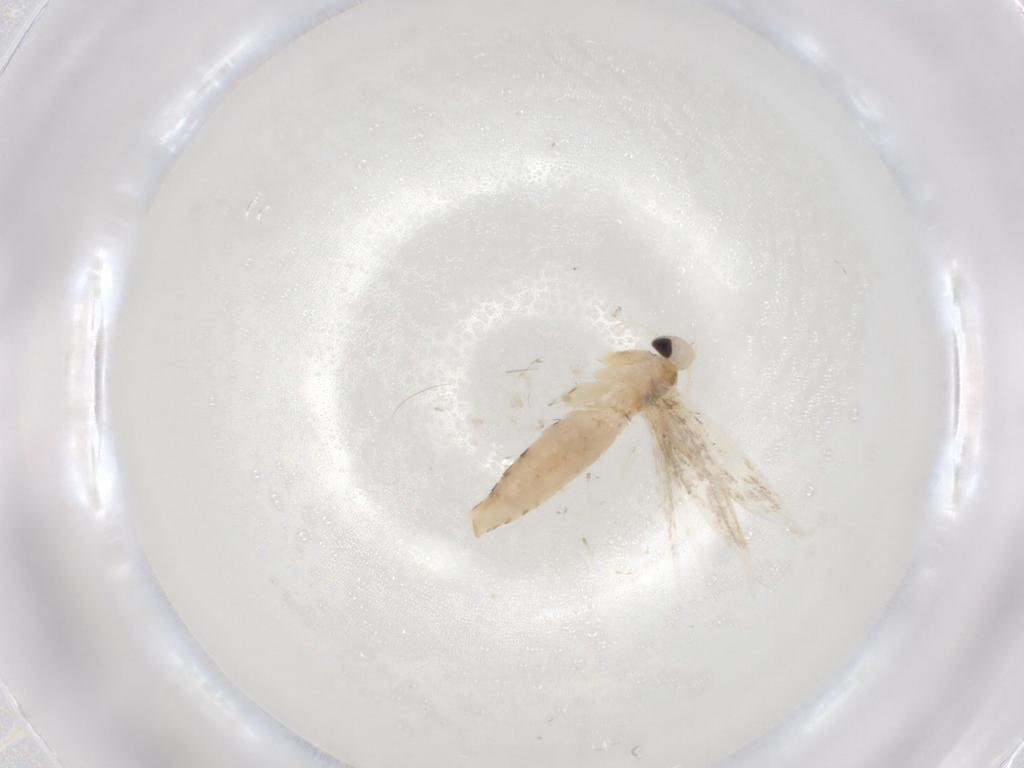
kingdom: Animalia
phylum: Arthropoda
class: Insecta
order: Lepidoptera
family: Gracillariidae
